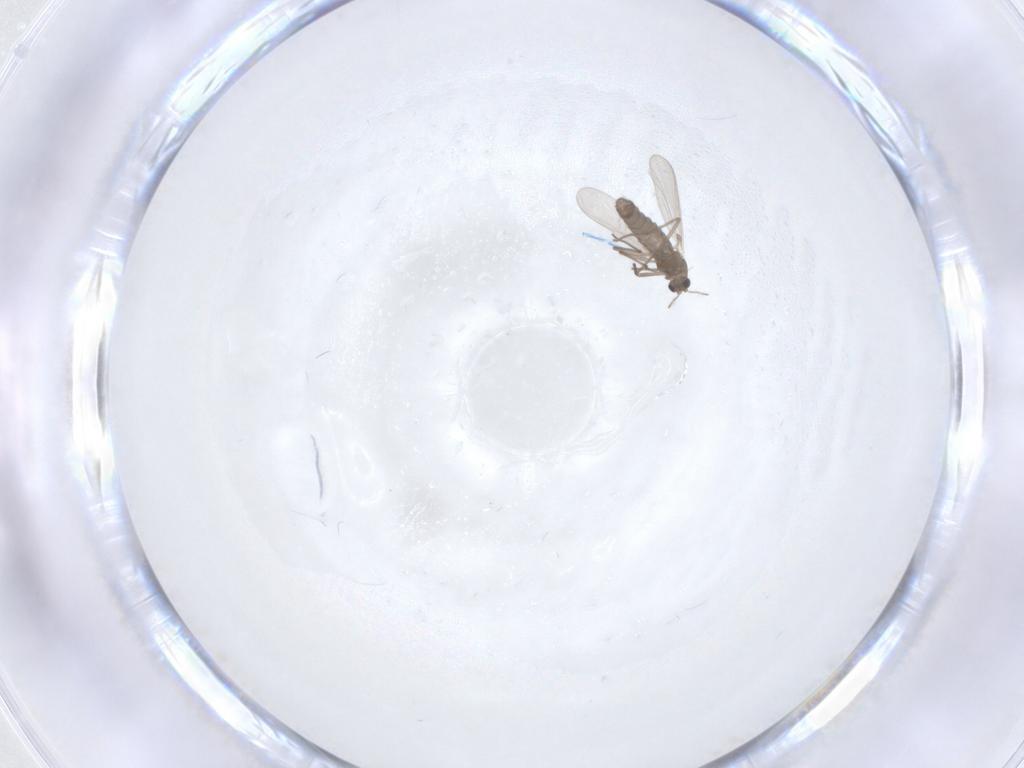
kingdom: Animalia
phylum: Arthropoda
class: Insecta
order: Diptera
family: Chironomidae
